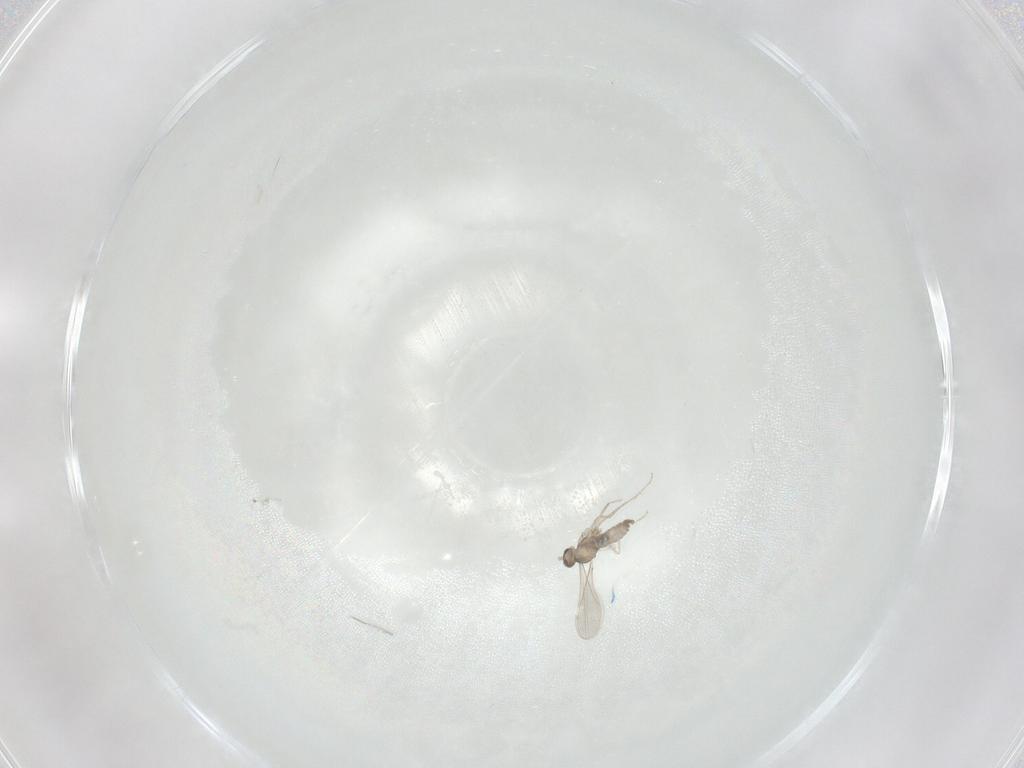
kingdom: Animalia
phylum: Arthropoda
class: Insecta
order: Diptera
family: Cecidomyiidae
